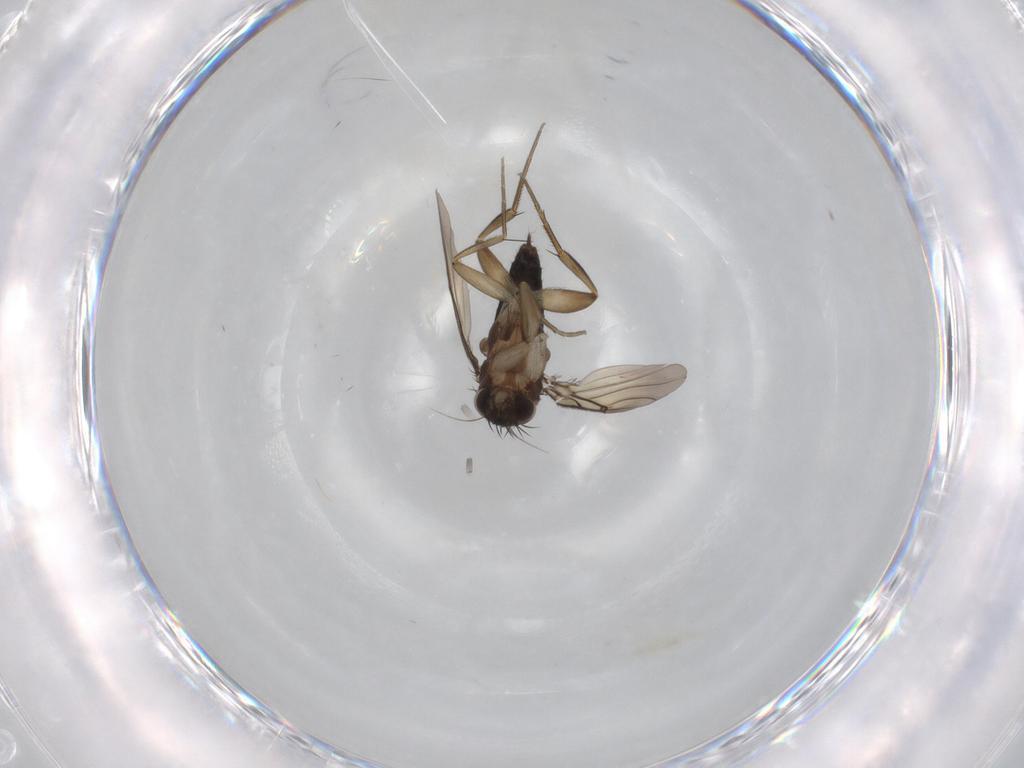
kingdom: Animalia
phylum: Arthropoda
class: Insecta
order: Diptera
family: Phoridae
